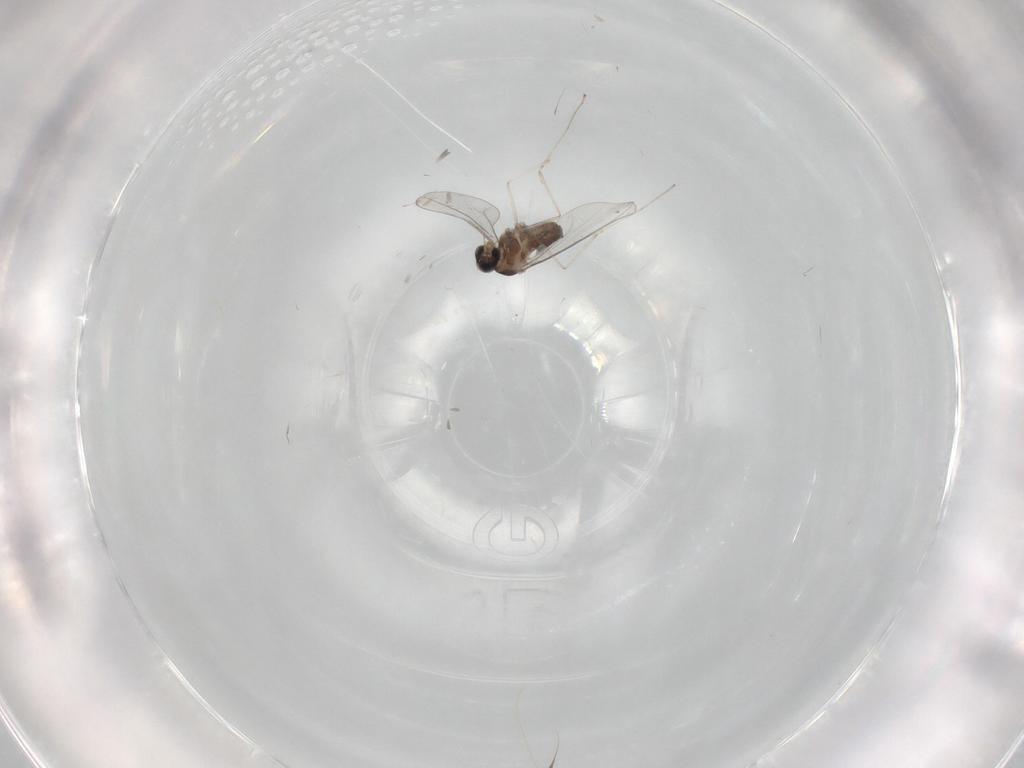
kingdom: Animalia
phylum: Arthropoda
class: Insecta
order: Diptera
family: Cecidomyiidae
